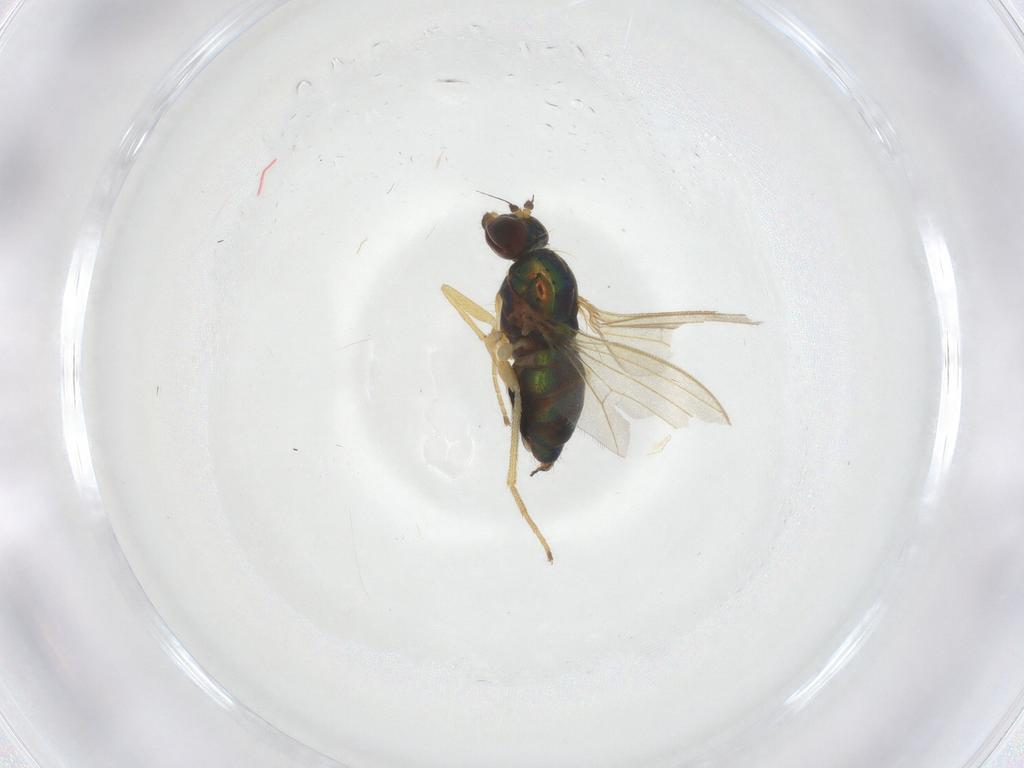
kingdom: Animalia
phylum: Arthropoda
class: Insecta
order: Diptera
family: Dolichopodidae
